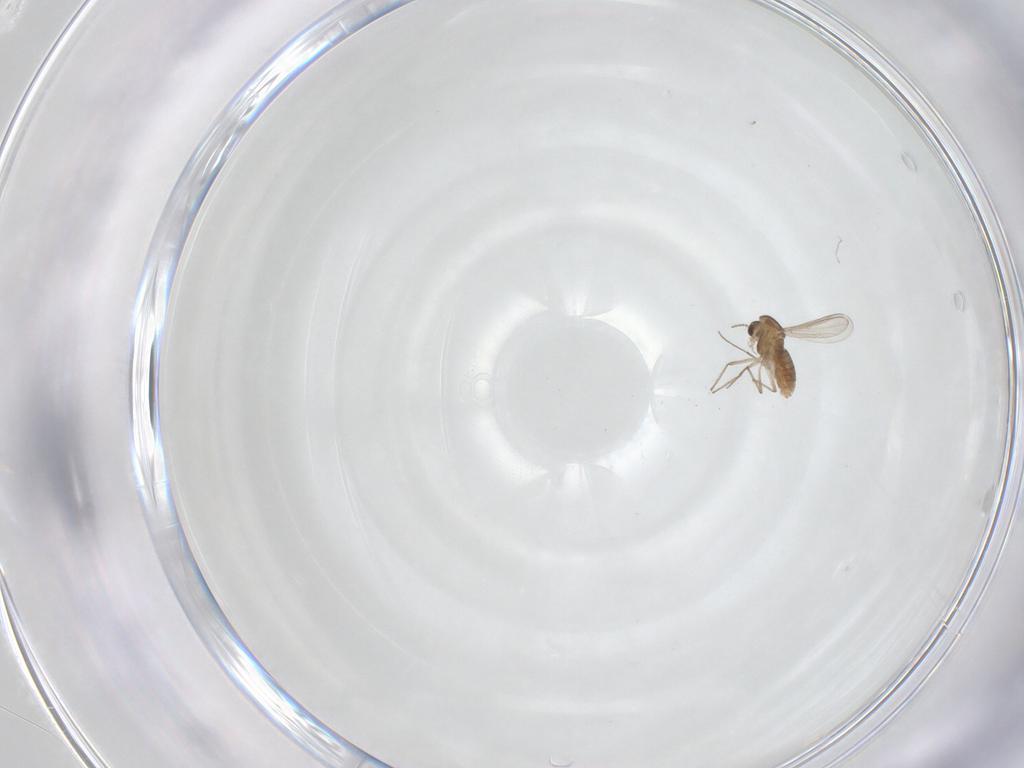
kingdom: Animalia
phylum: Arthropoda
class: Insecta
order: Diptera
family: Chironomidae
